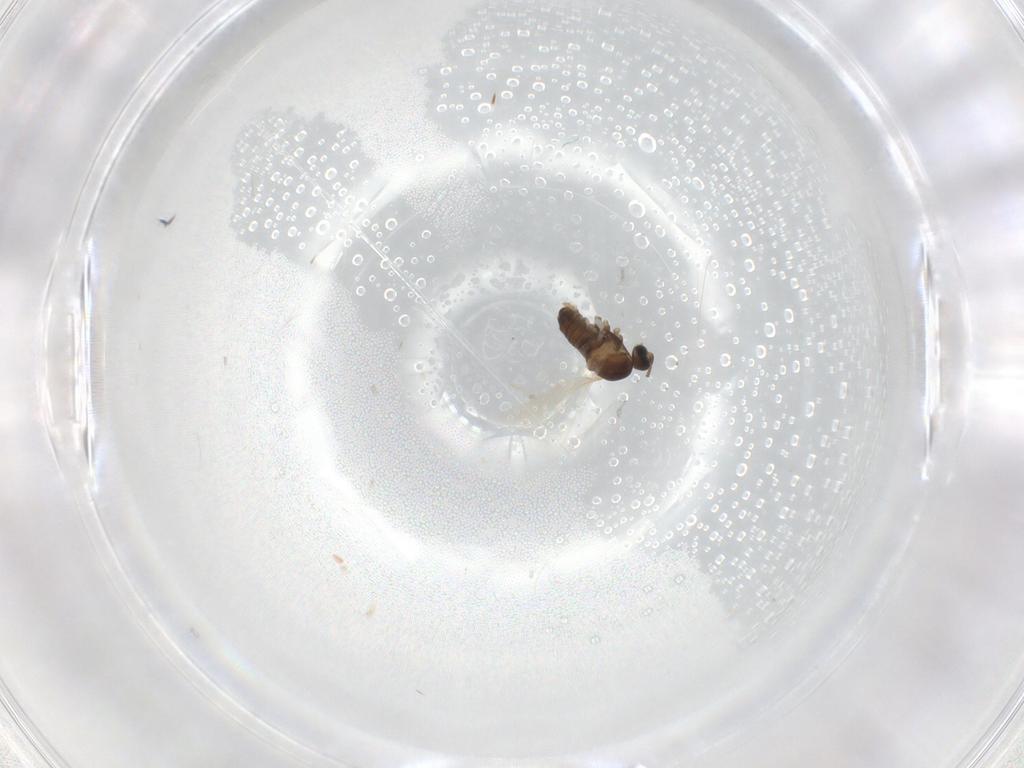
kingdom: Animalia
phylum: Arthropoda
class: Insecta
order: Diptera
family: Cecidomyiidae
